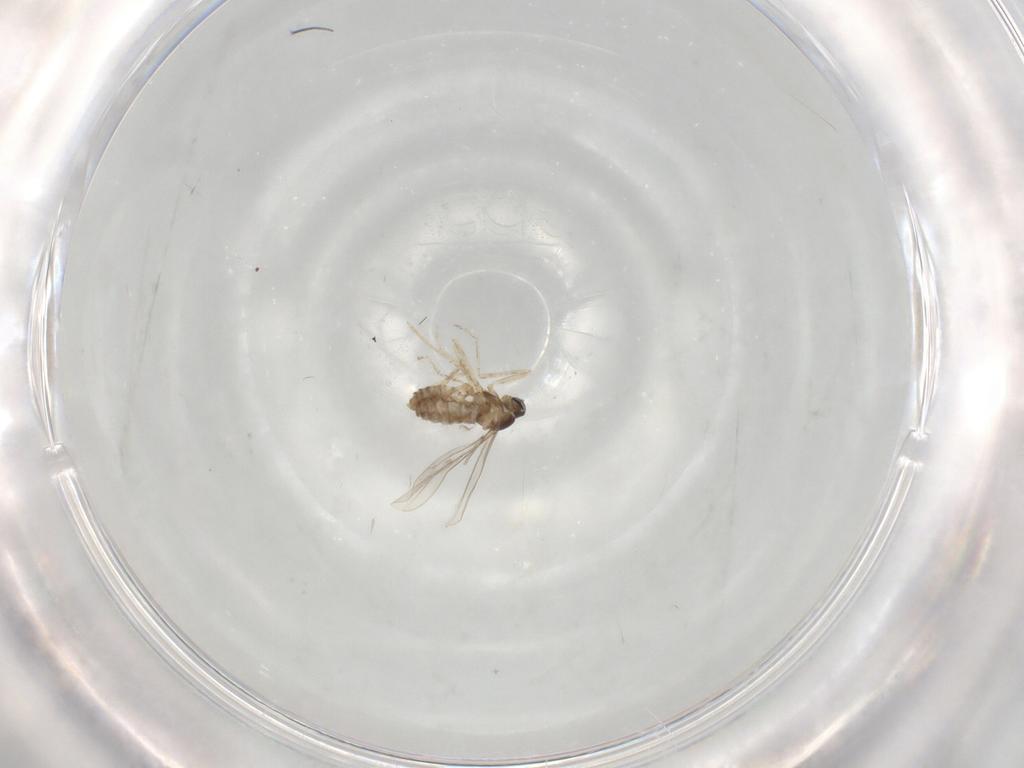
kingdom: Animalia
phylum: Arthropoda
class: Insecta
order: Diptera
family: Cecidomyiidae
